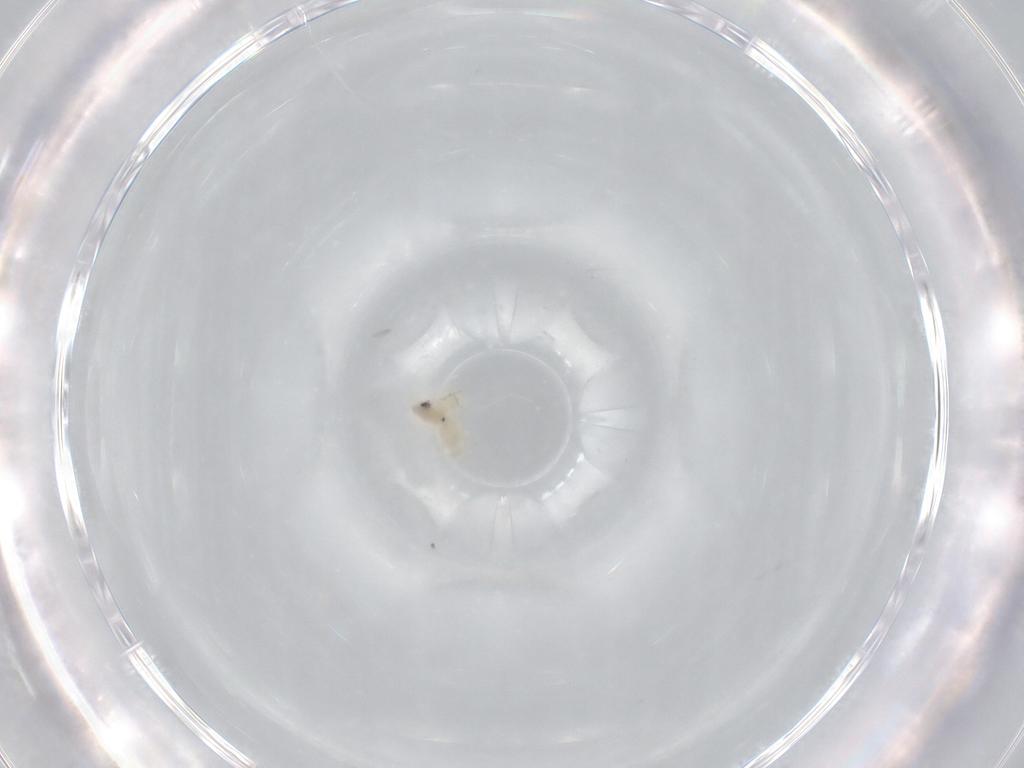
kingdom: Animalia
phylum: Arthropoda
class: Insecta
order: Hemiptera
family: Aleyrodidae
